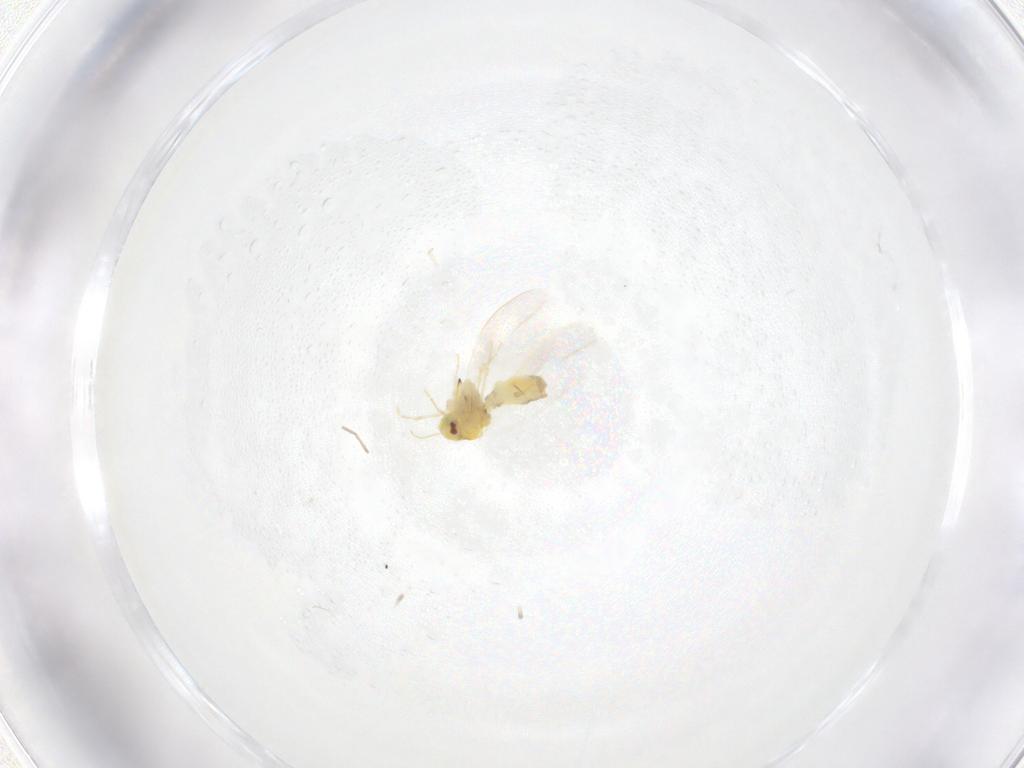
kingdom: Animalia
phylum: Arthropoda
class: Insecta
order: Hemiptera
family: Aleyrodidae
